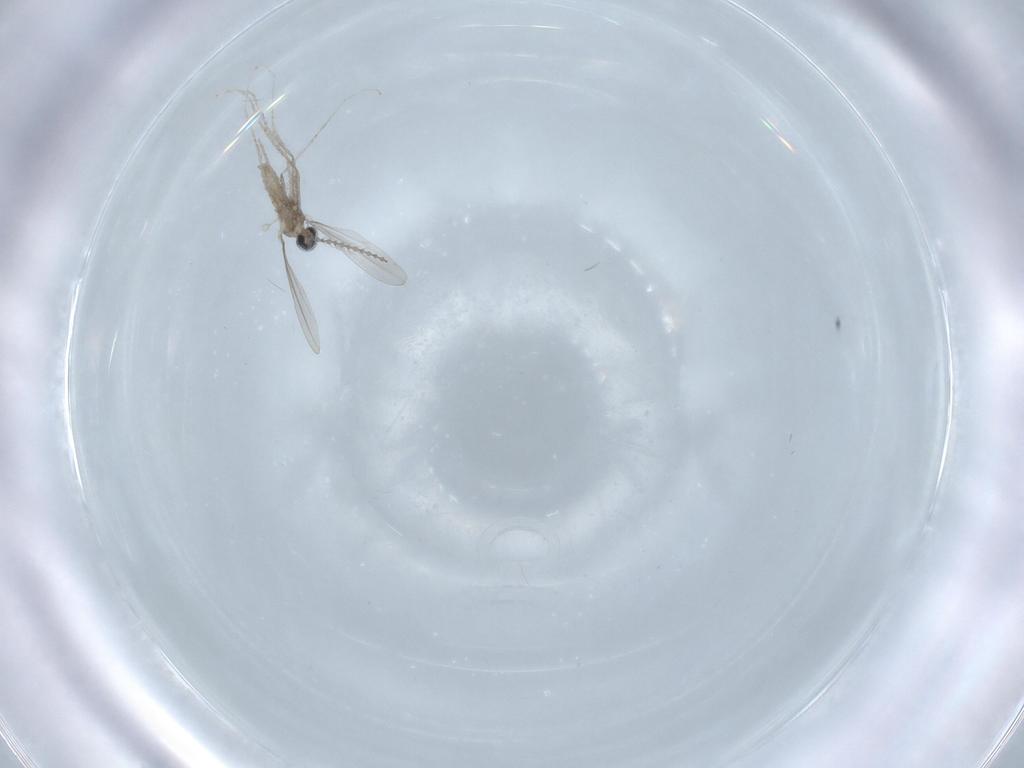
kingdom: Animalia
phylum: Arthropoda
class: Insecta
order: Diptera
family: Cecidomyiidae
